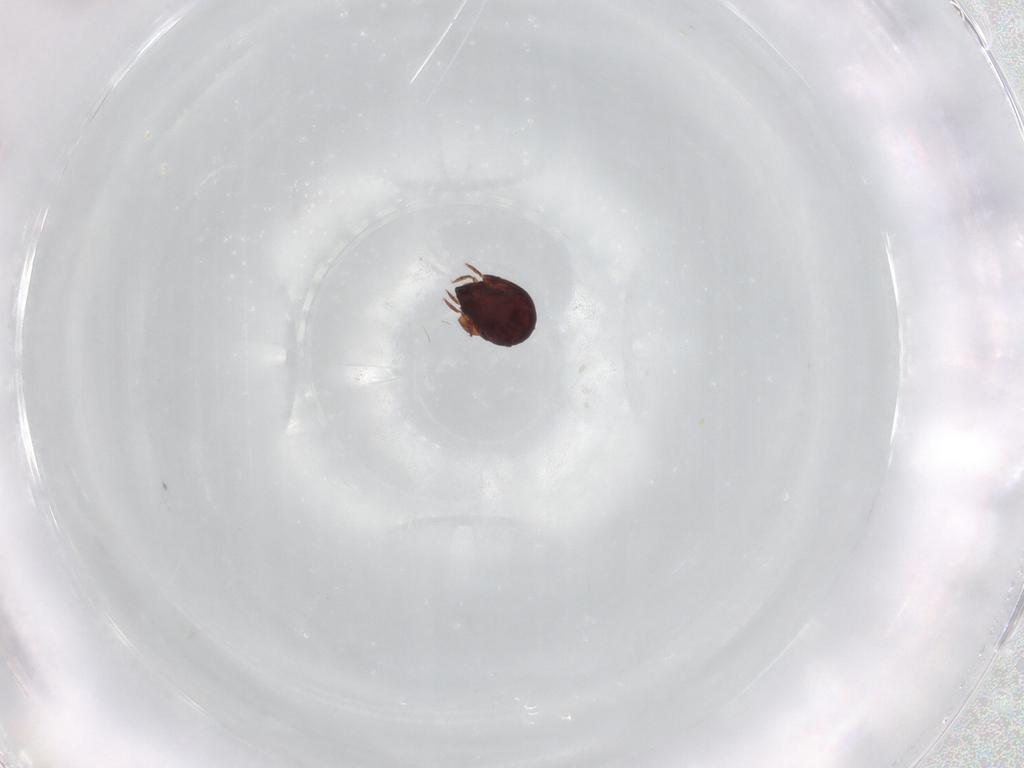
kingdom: Animalia
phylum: Arthropoda
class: Arachnida
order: Sarcoptiformes
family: Humerobatidae
